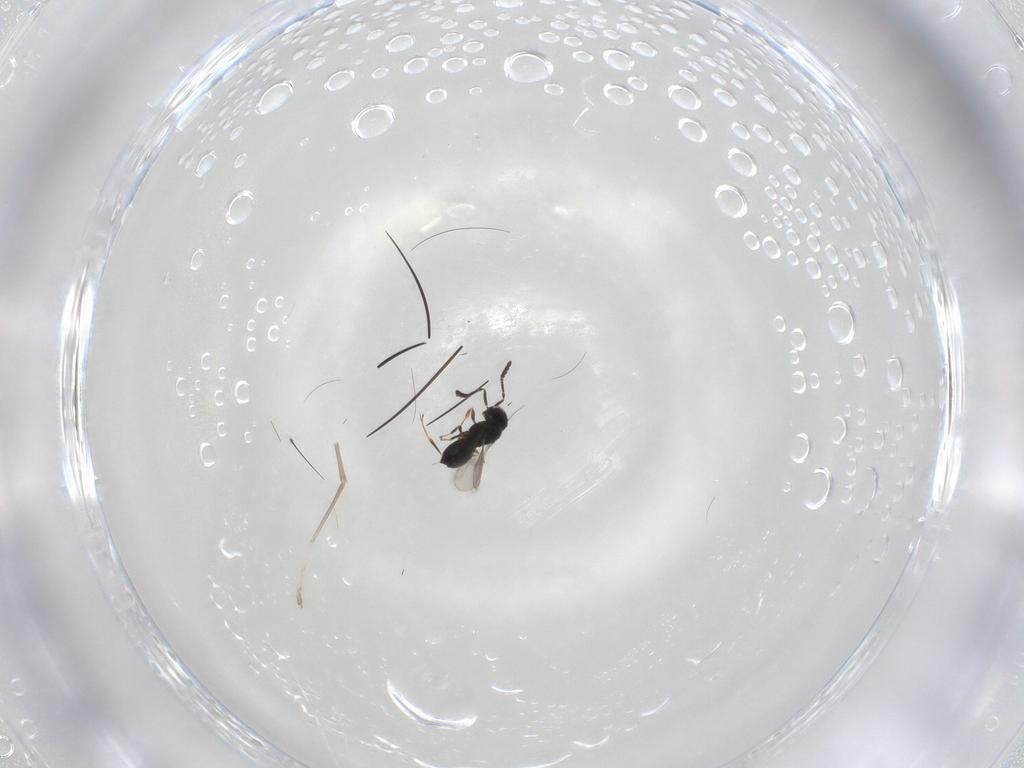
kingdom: Animalia
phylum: Arthropoda
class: Insecta
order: Hymenoptera
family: Scelionidae
